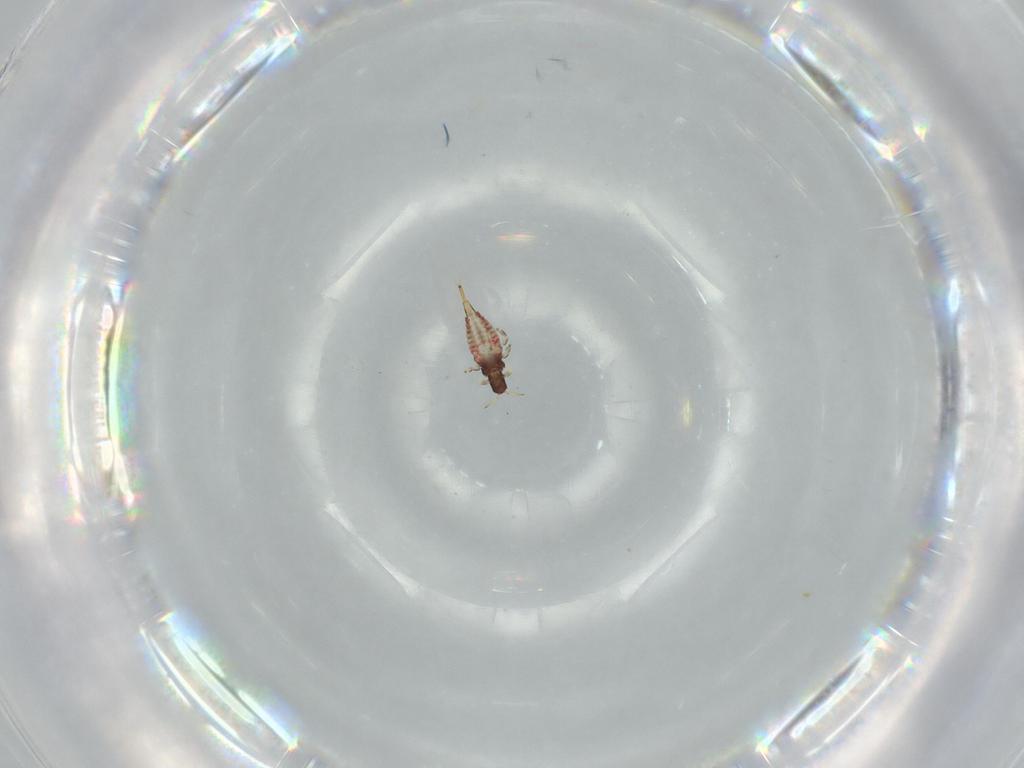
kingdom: Animalia
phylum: Arthropoda
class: Insecta
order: Thysanoptera
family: Phlaeothripidae
